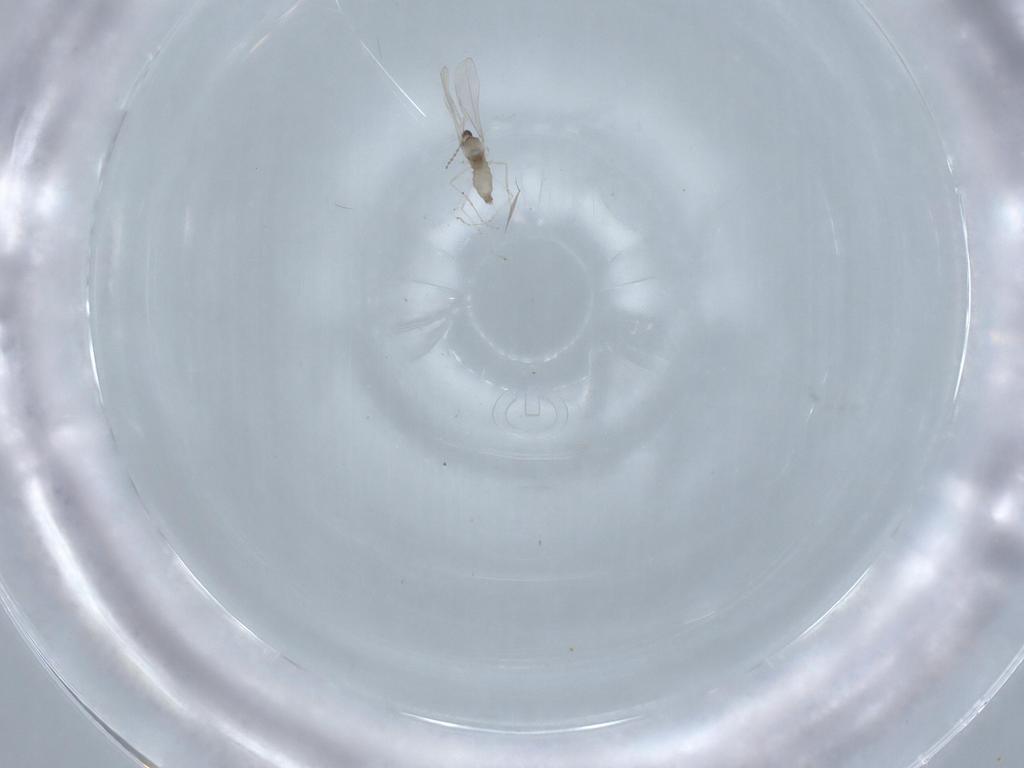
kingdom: Animalia
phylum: Arthropoda
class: Insecta
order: Diptera
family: Cecidomyiidae
